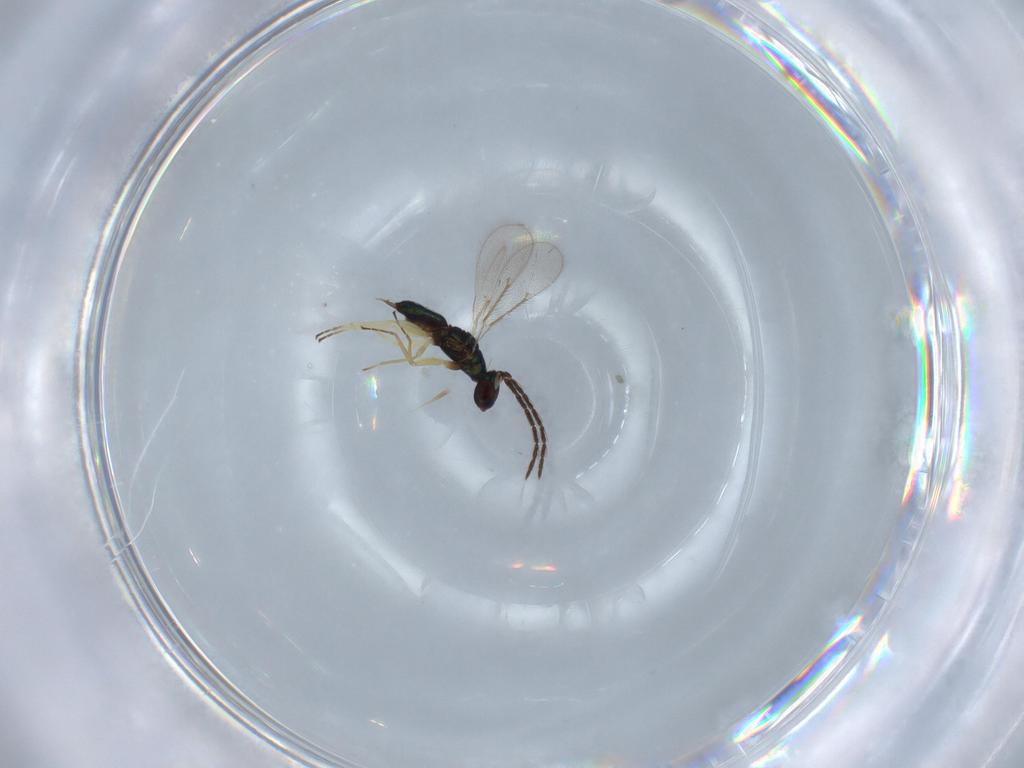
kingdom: Animalia
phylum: Arthropoda
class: Insecta
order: Hymenoptera
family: Eulophidae
